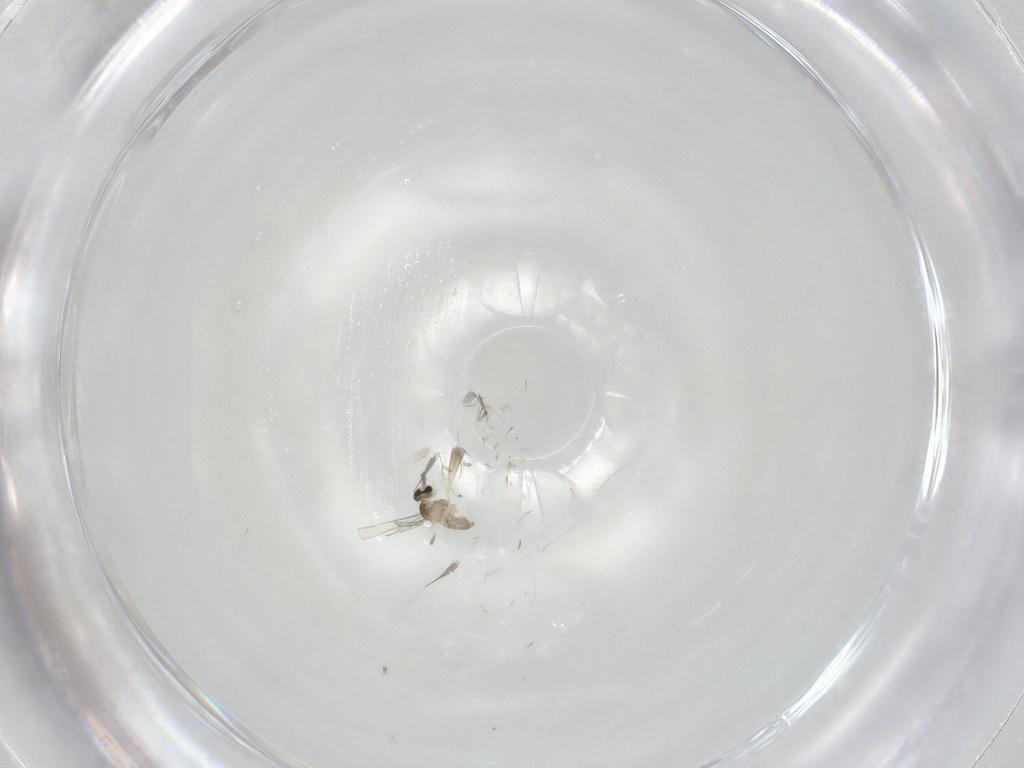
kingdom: Animalia
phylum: Arthropoda
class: Insecta
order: Diptera
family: Cecidomyiidae
